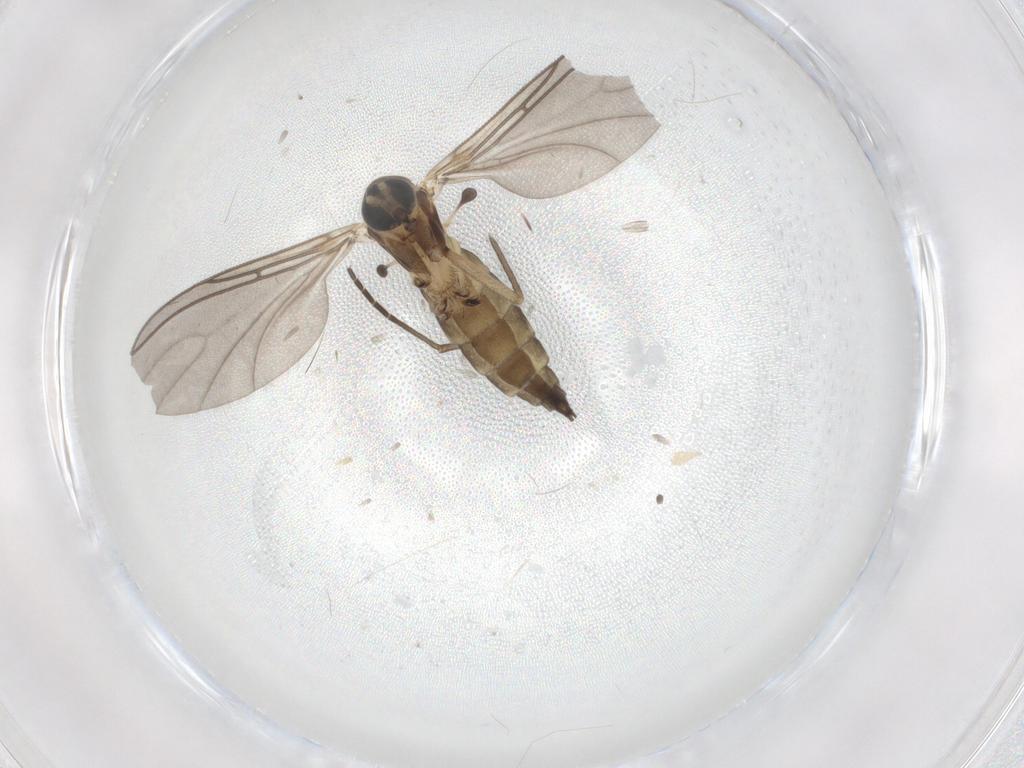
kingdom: Animalia
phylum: Arthropoda
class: Insecta
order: Diptera
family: Sciaridae
